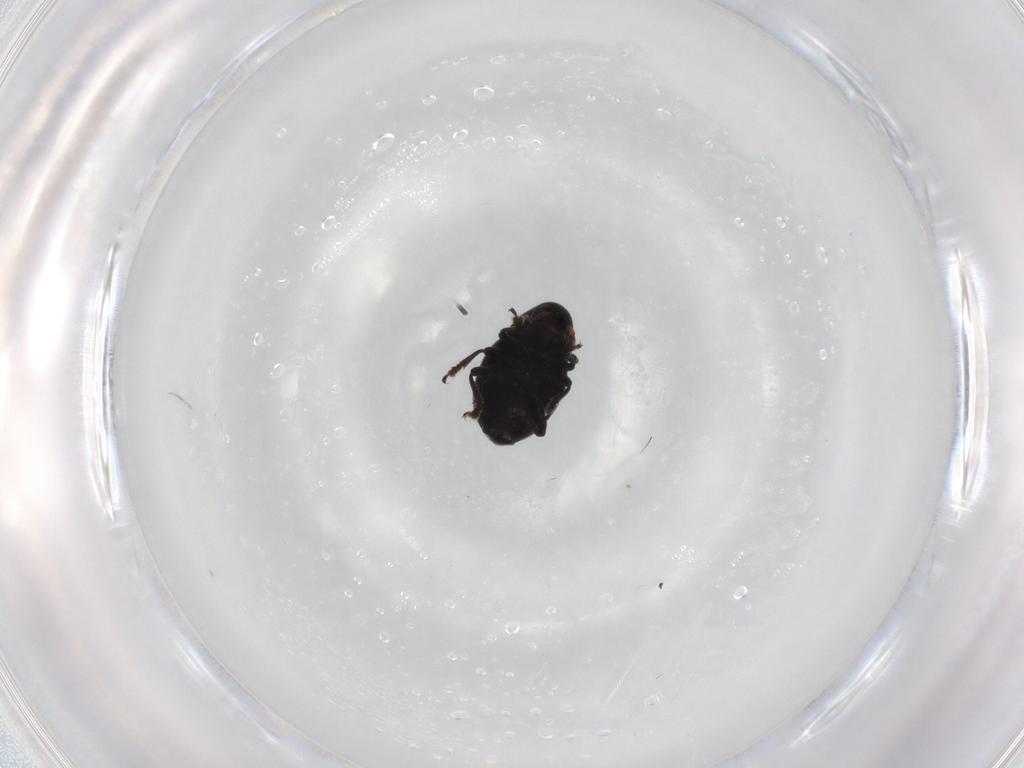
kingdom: Animalia
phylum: Arthropoda
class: Insecta
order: Coleoptera
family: Anthribidae
